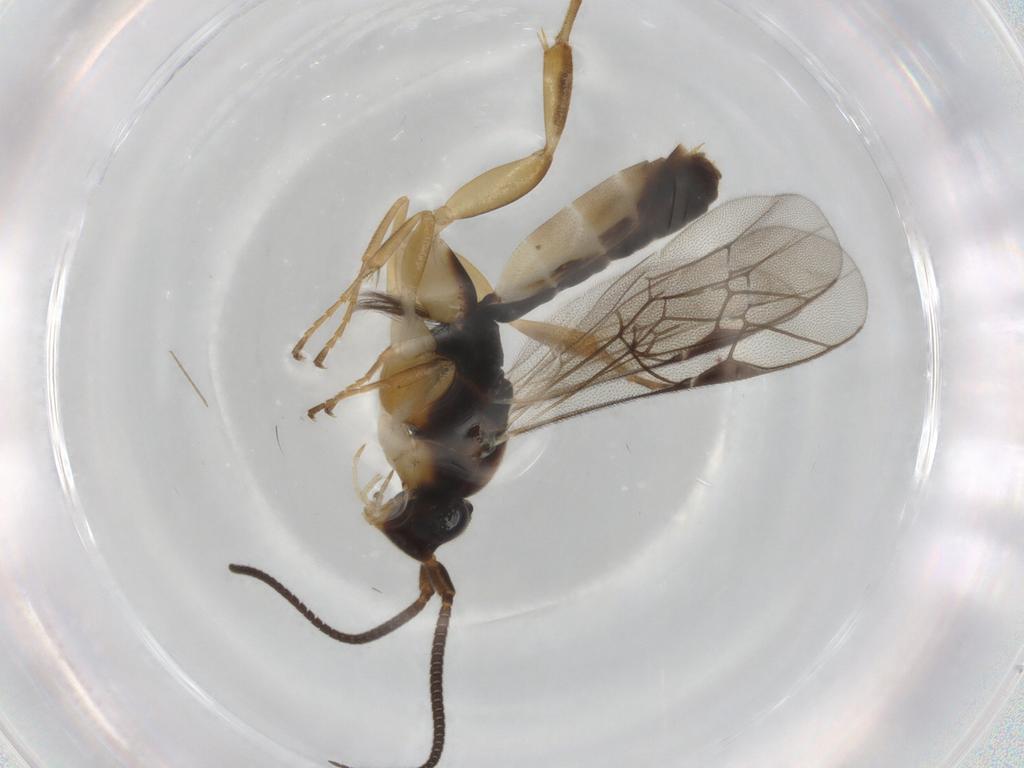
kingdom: Animalia
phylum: Arthropoda
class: Insecta
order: Hymenoptera
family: Ichneumonidae
